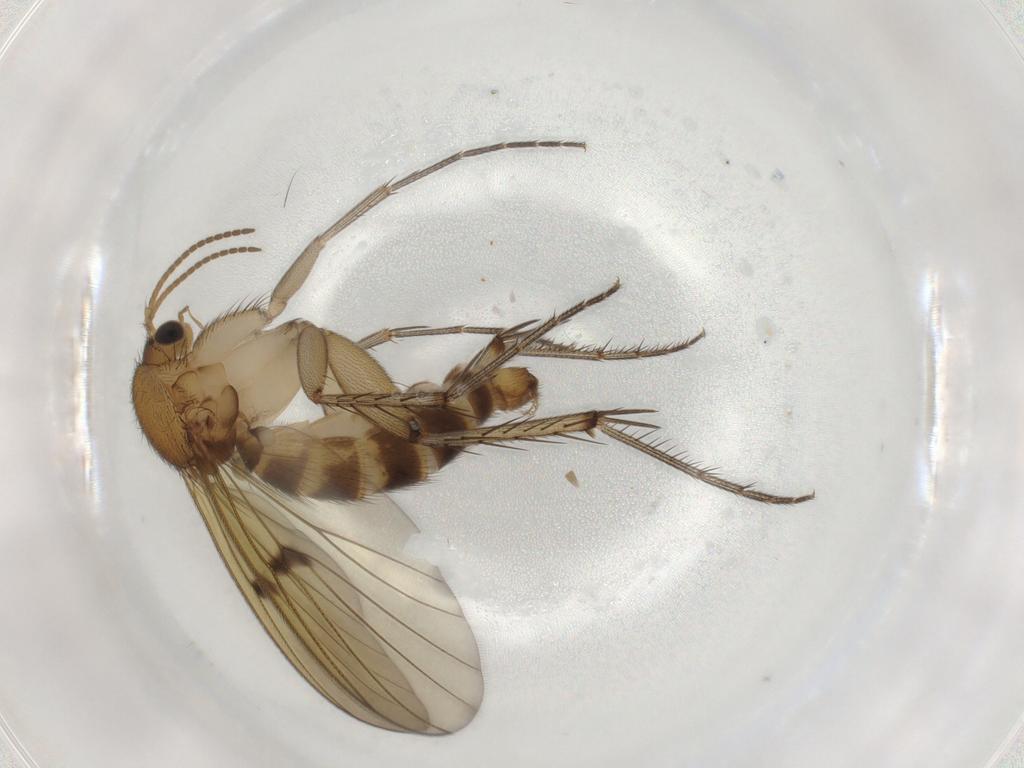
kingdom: Animalia
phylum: Arthropoda
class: Insecta
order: Diptera
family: Mycetophilidae
